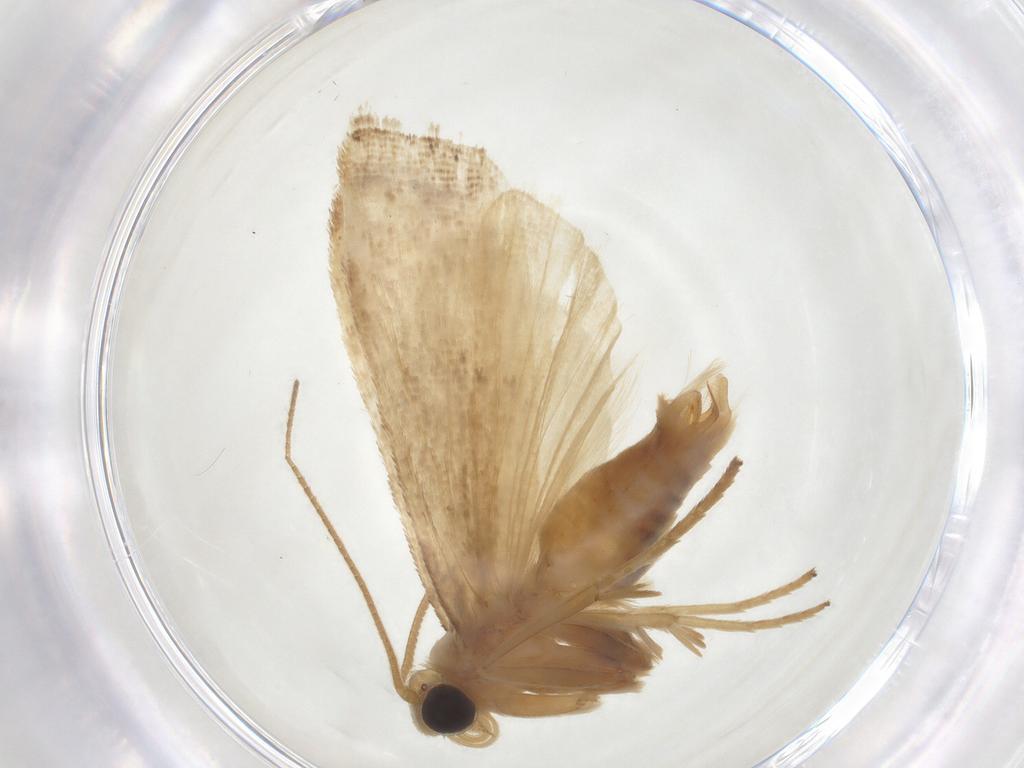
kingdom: Animalia
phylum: Arthropoda
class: Insecta
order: Lepidoptera
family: Pyralidae
